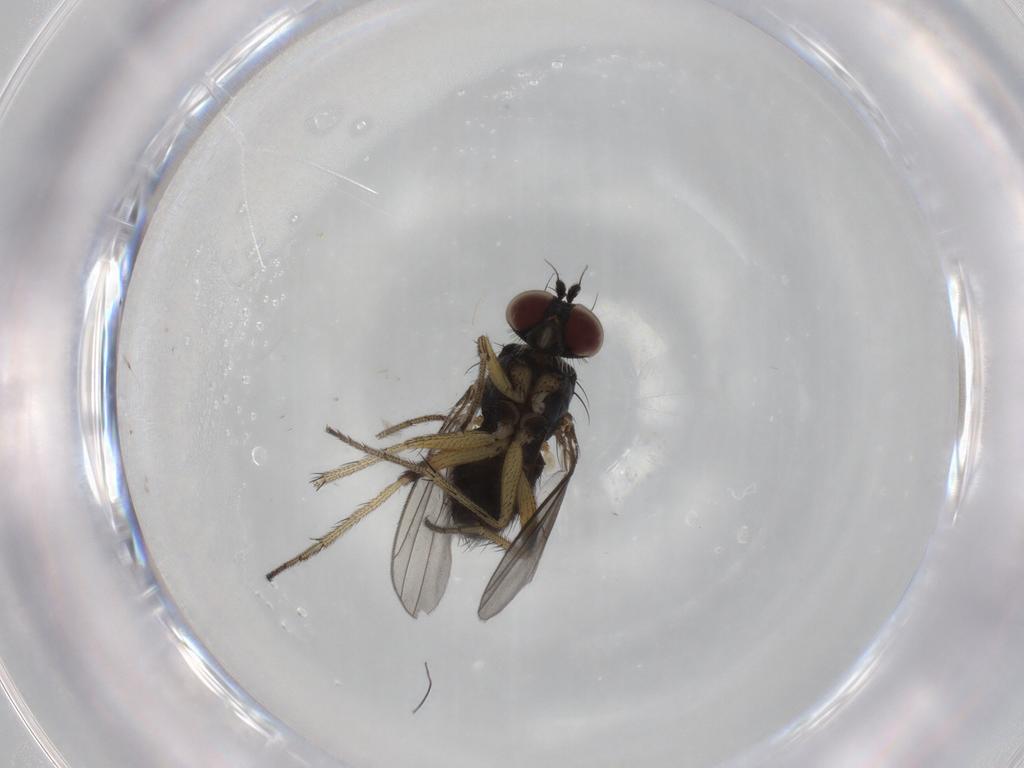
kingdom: Animalia
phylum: Arthropoda
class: Insecta
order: Diptera
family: Dolichopodidae
